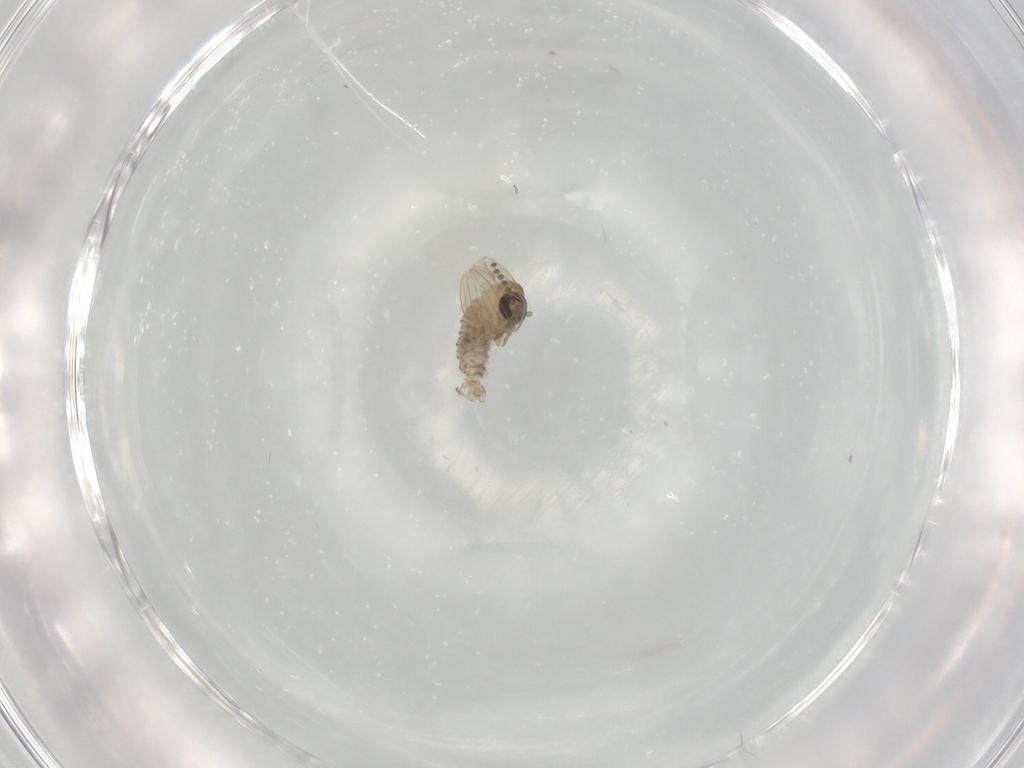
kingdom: Animalia
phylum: Arthropoda
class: Insecta
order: Diptera
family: Psychodidae
